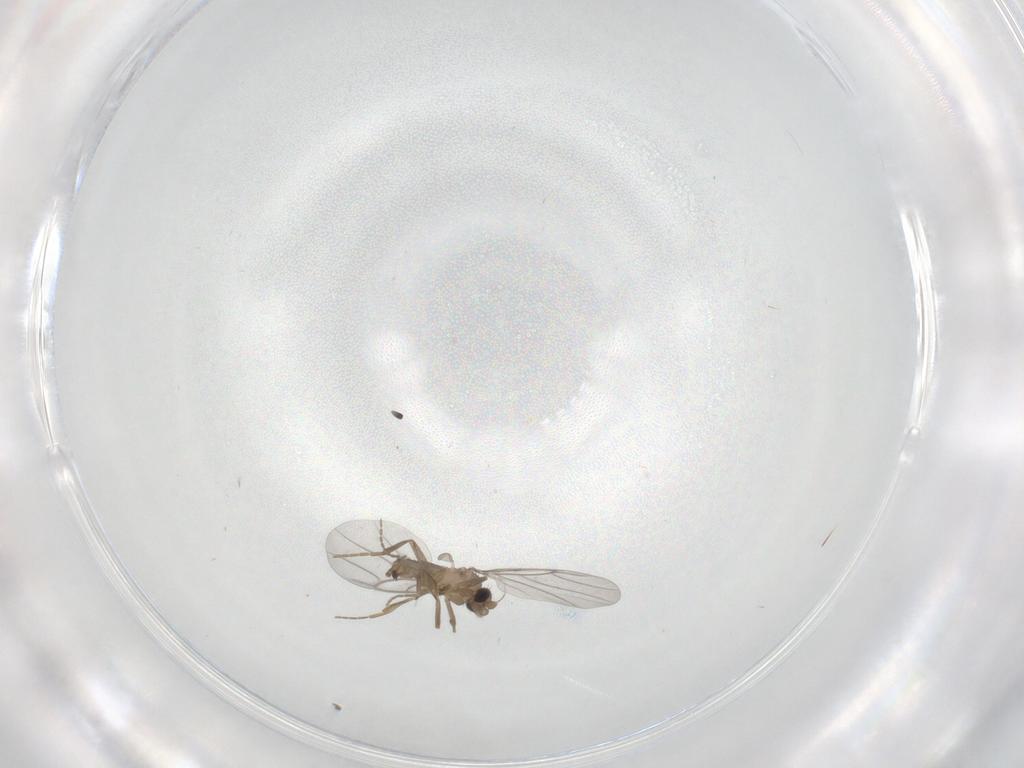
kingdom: Animalia
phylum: Arthropoda
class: Insecta
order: Diptera
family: Cecidomyiidae
